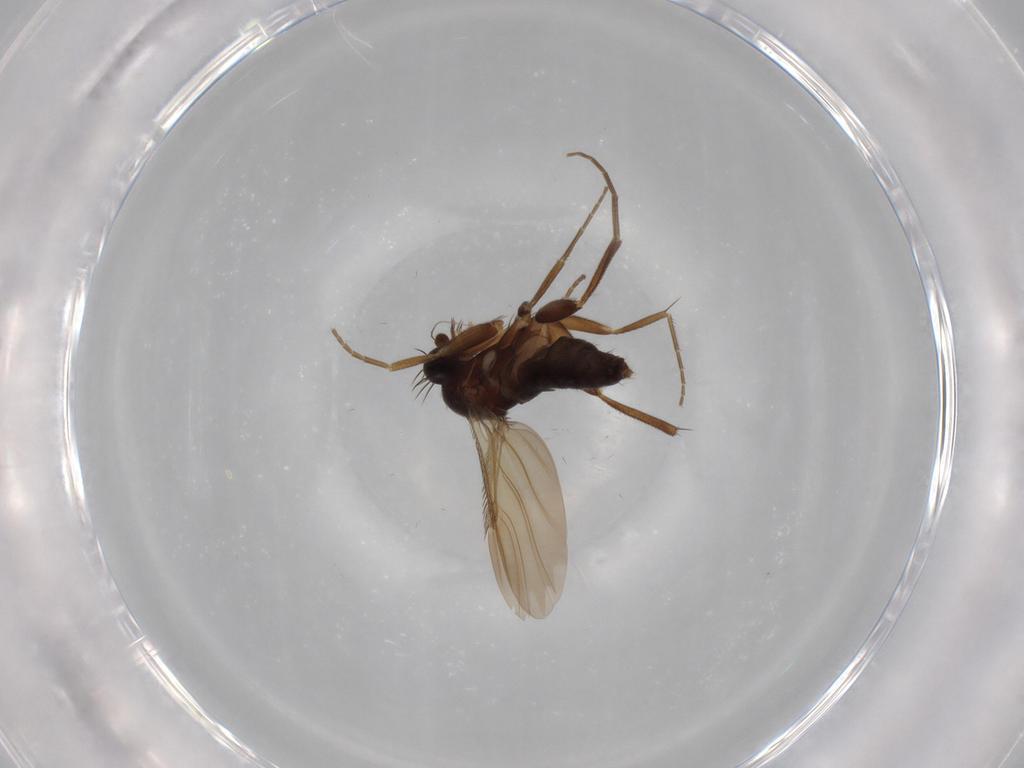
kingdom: Animalia
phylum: Arthropoda
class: Insecta
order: Diptera
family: Phoridae
